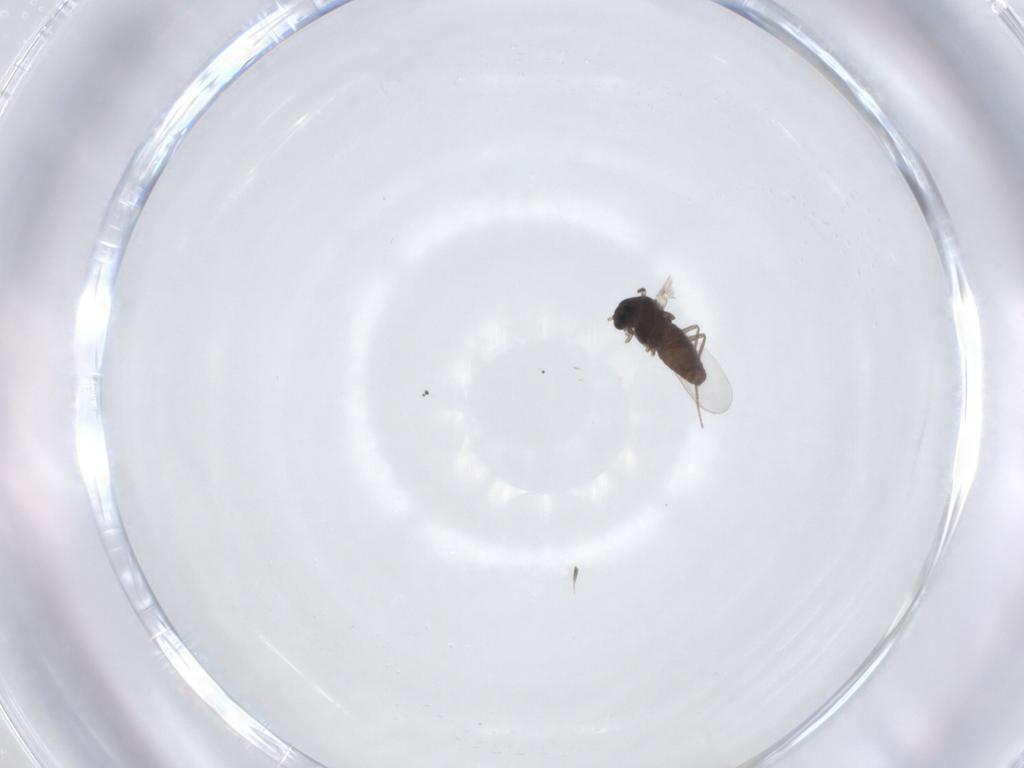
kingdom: Animalia
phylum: Arthropoda
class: Insecta
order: Diptera
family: Chironomidae
